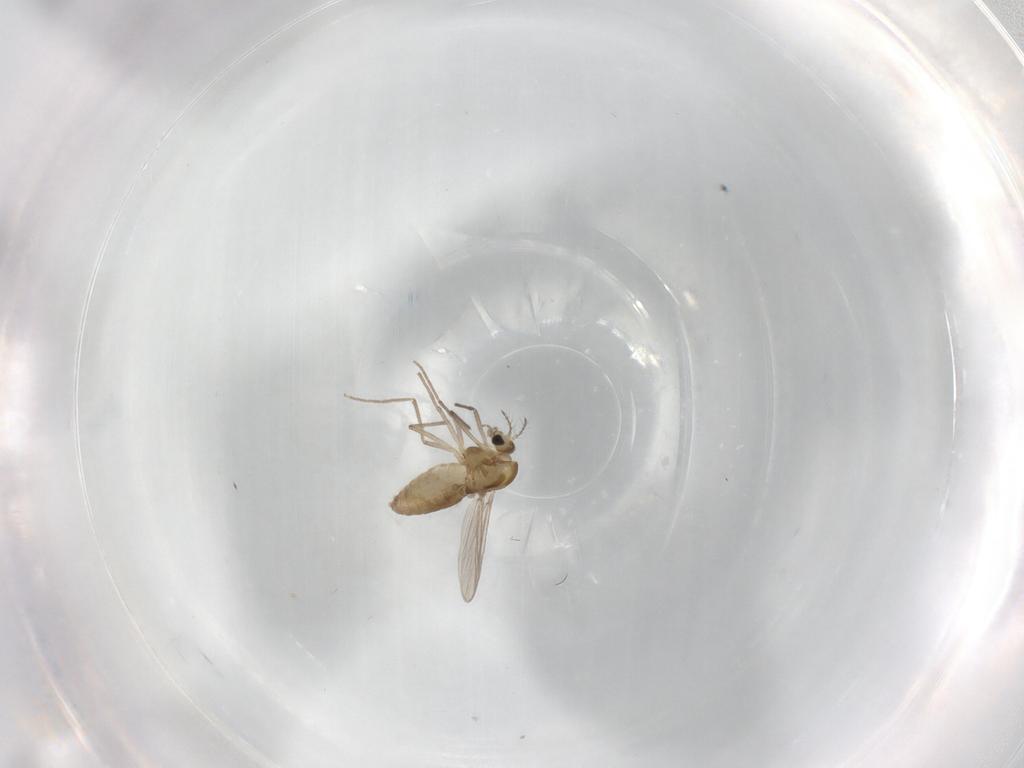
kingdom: Animalia
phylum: Arthropoda
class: Insecta
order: Diptera
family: Chironomidae
